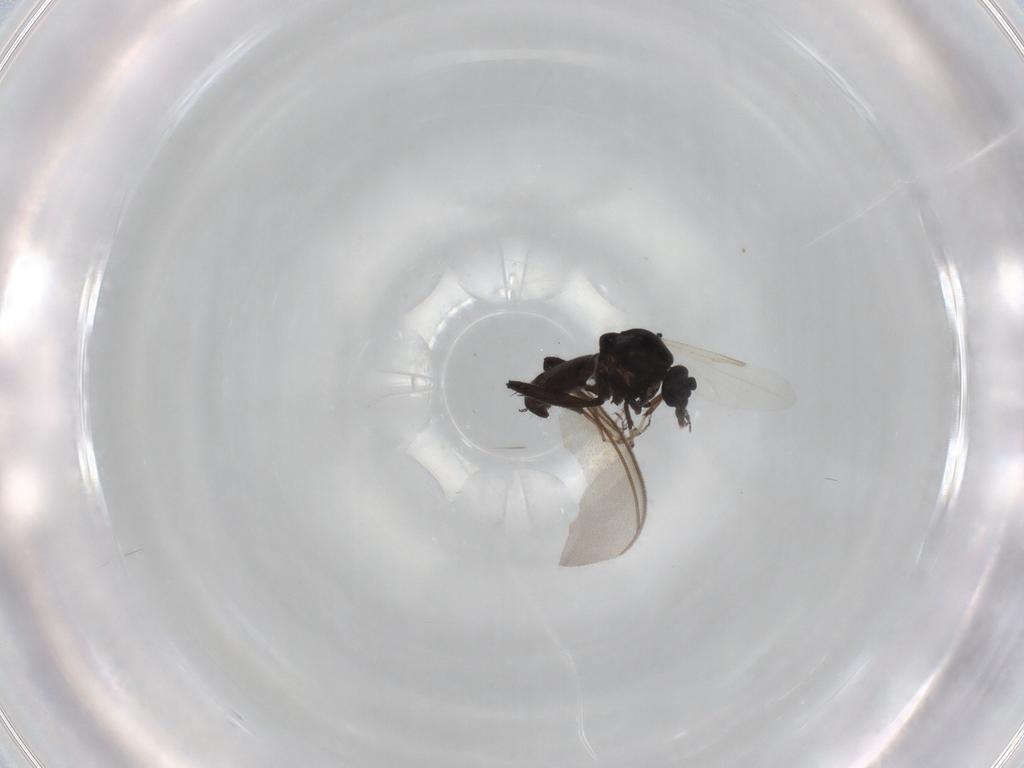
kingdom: Animalia
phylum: Arthropoda
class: Insecta
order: Diptera
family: Ceratopogonidae
